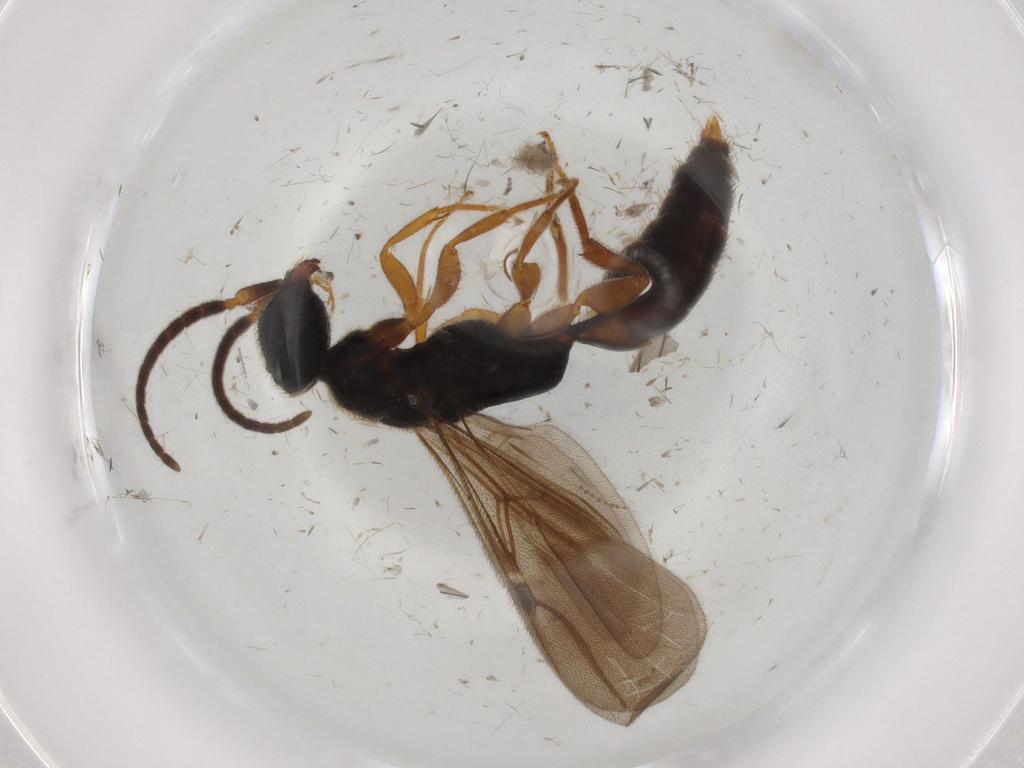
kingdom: Animalia
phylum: Arthropoda
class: Insecta
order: Hymenoptera
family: Bethylidae
